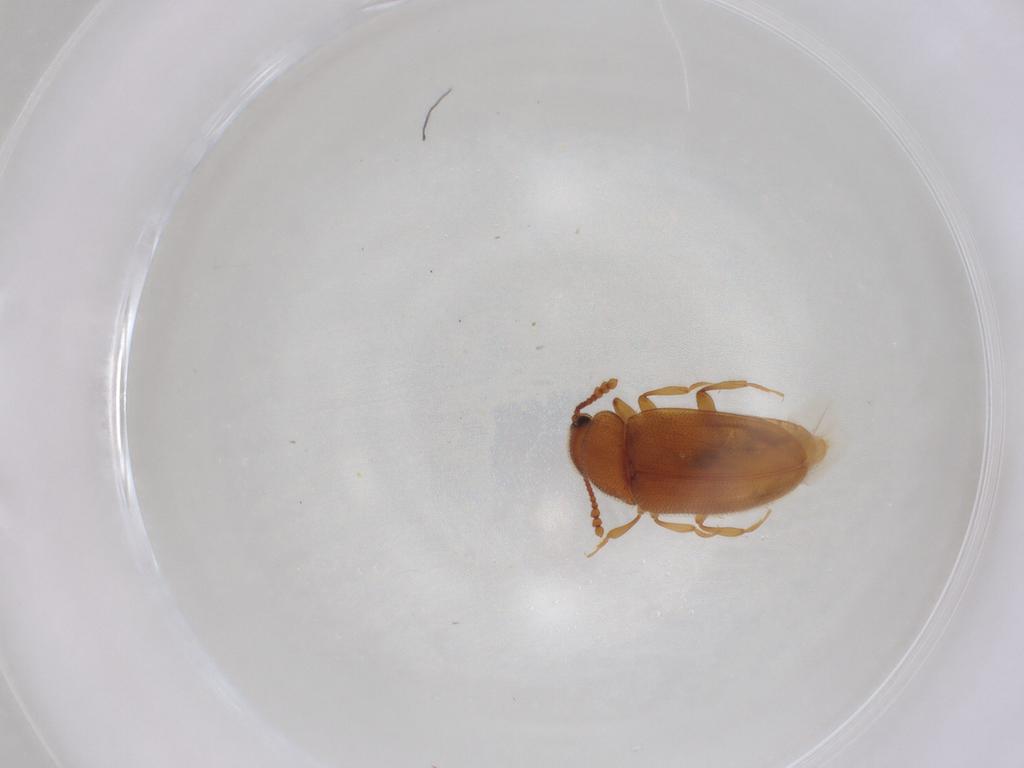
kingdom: Animalia
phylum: Arthropoda
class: Insecta
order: Coleoptera
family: Erotylidae
